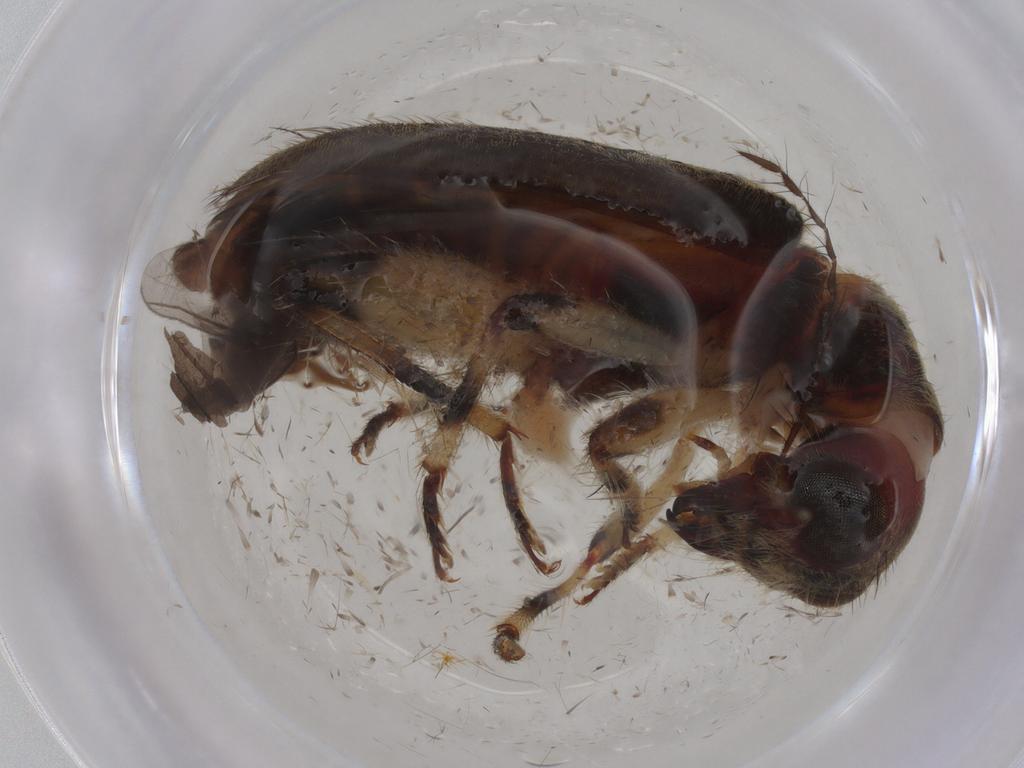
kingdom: Animalia
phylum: Arthropoda
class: Insecta
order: Coleoptera
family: Cleridae
